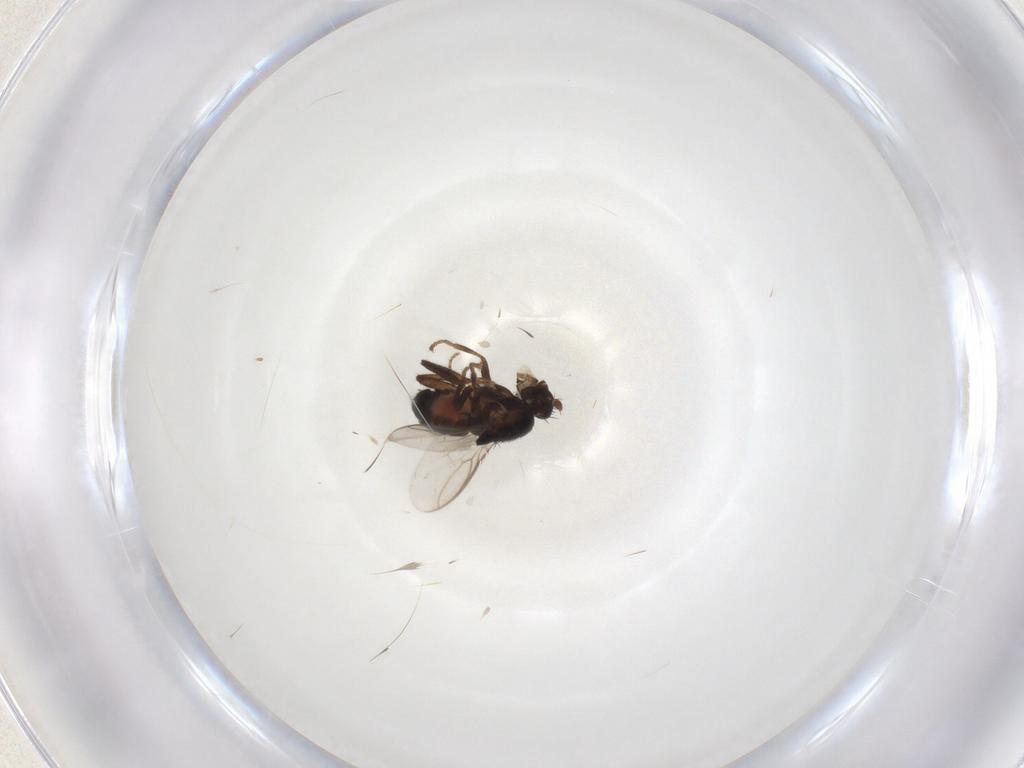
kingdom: Animalia
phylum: Arthropoda
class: Insecta
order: Diptera
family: Sphaeroceridae
